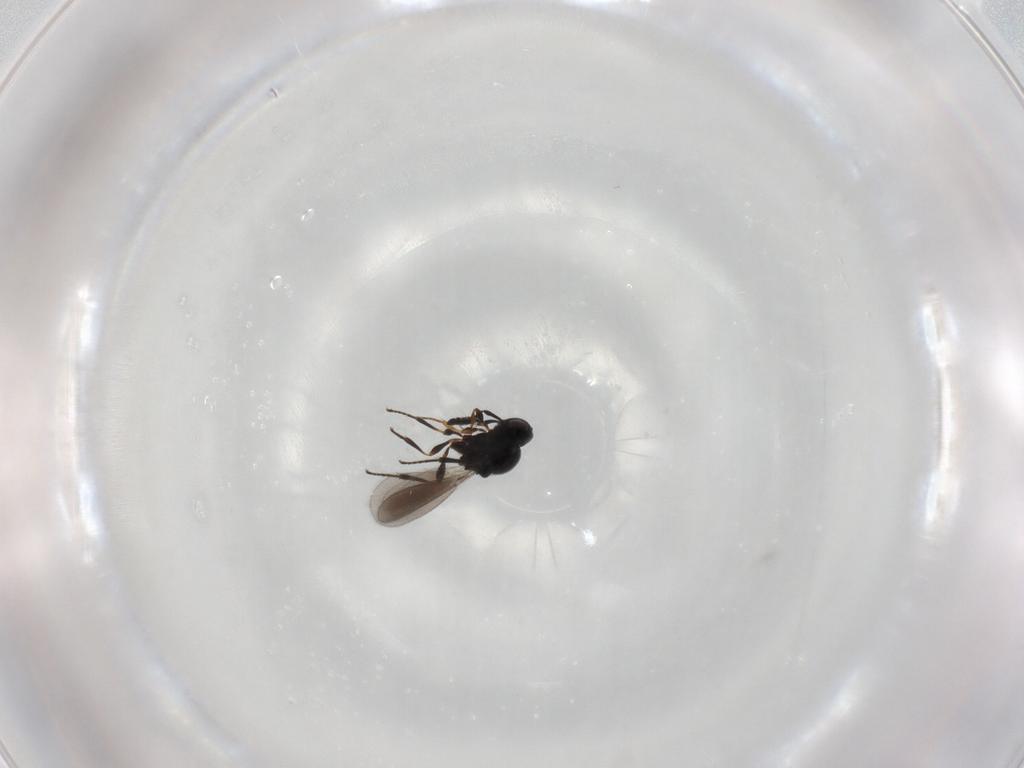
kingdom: Animalia
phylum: Arthropoda
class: Insecta
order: Hymenoptera
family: Platygastridae
